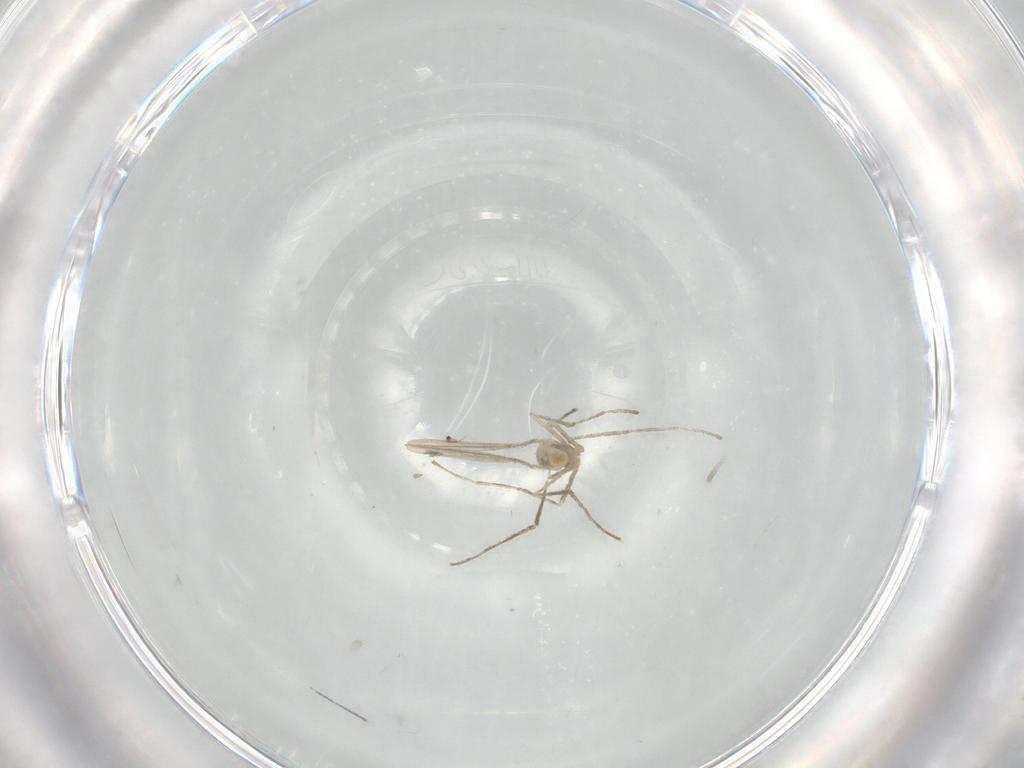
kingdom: Animalia
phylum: Arthropoda
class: Insecta
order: Diptera
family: Cecidomyiidae
